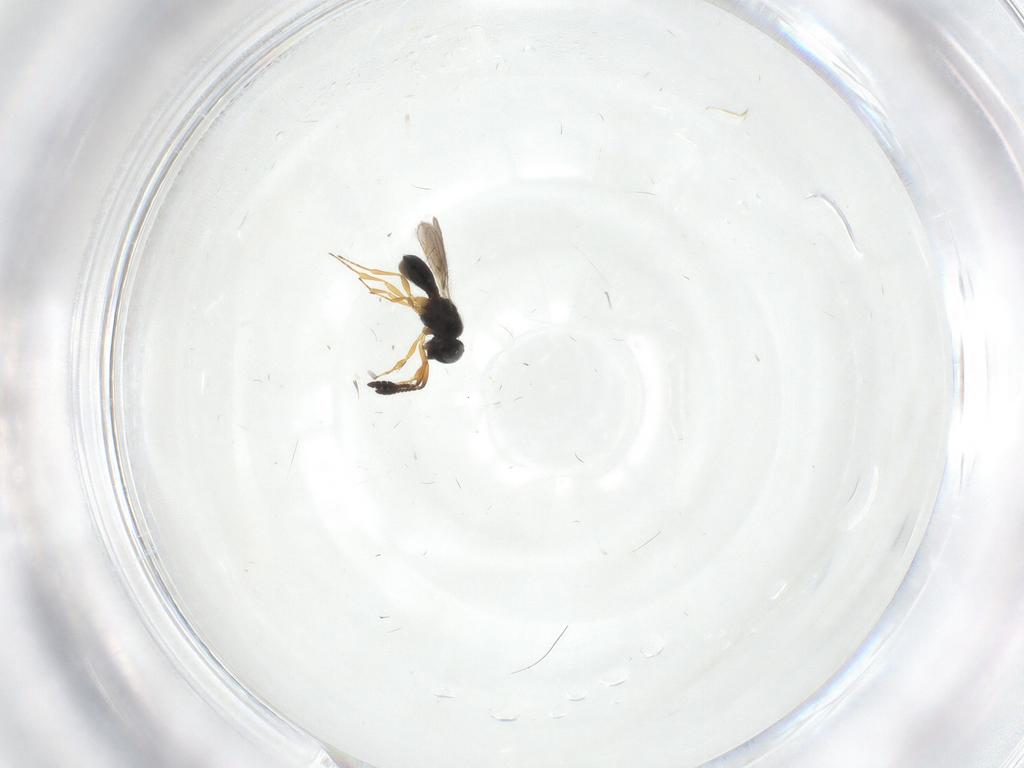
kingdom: Animalia
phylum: Arthropoda
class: Insecta
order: Hymenoptera
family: Scelionidae
